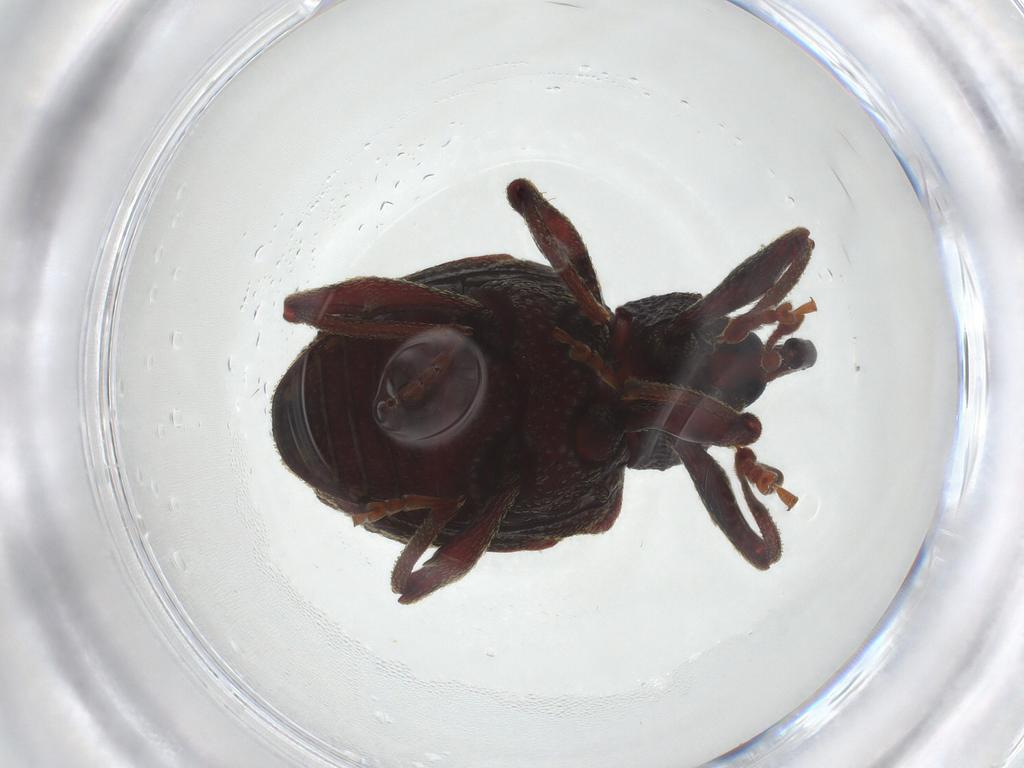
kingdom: Animalia
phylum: Arthropoda
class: Insecta
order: Coleoptera
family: Curculionidae
